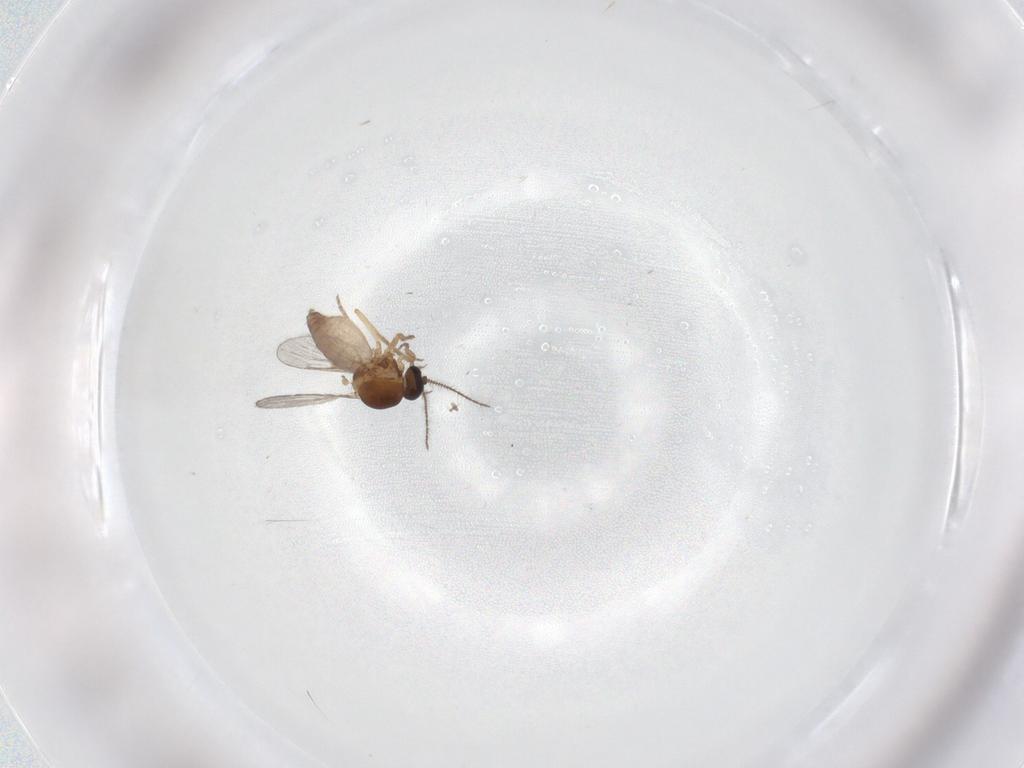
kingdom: Animalia
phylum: Arthropoda
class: Insecta
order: Diptera
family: Ceratopogonidae
